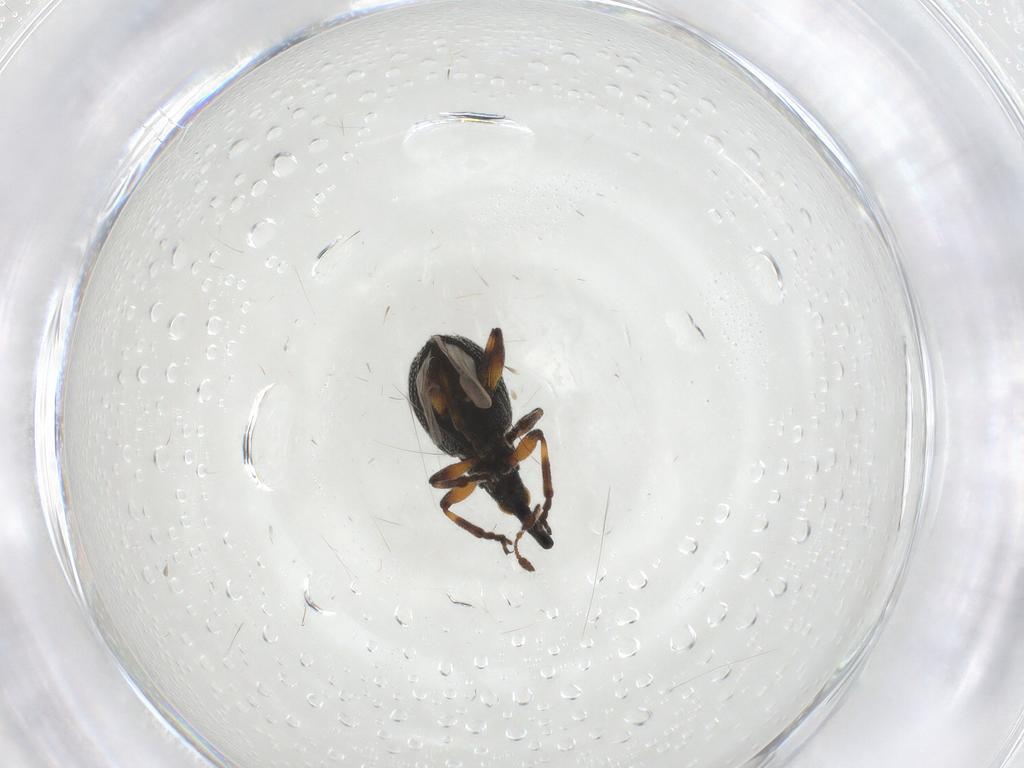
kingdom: Animalia
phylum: Arthropoda
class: Insecta
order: Coleoptera
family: Brentidae
